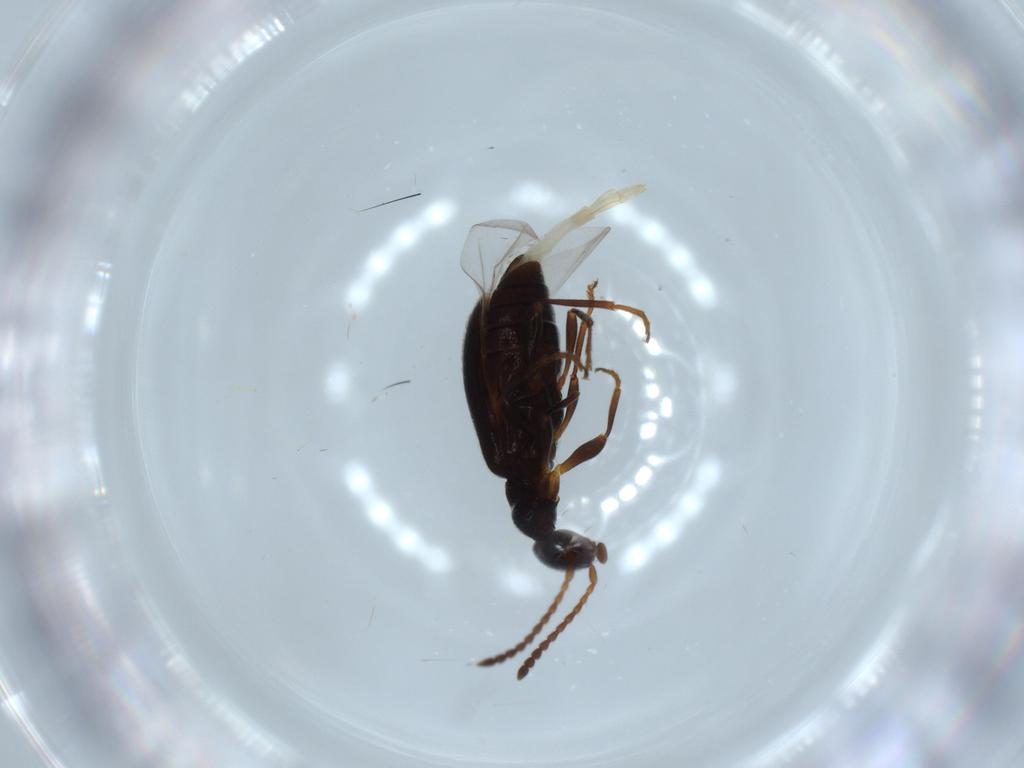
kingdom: Animalia
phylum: Arthropoda
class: Insecta
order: Coleoptera
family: Anthicidae
